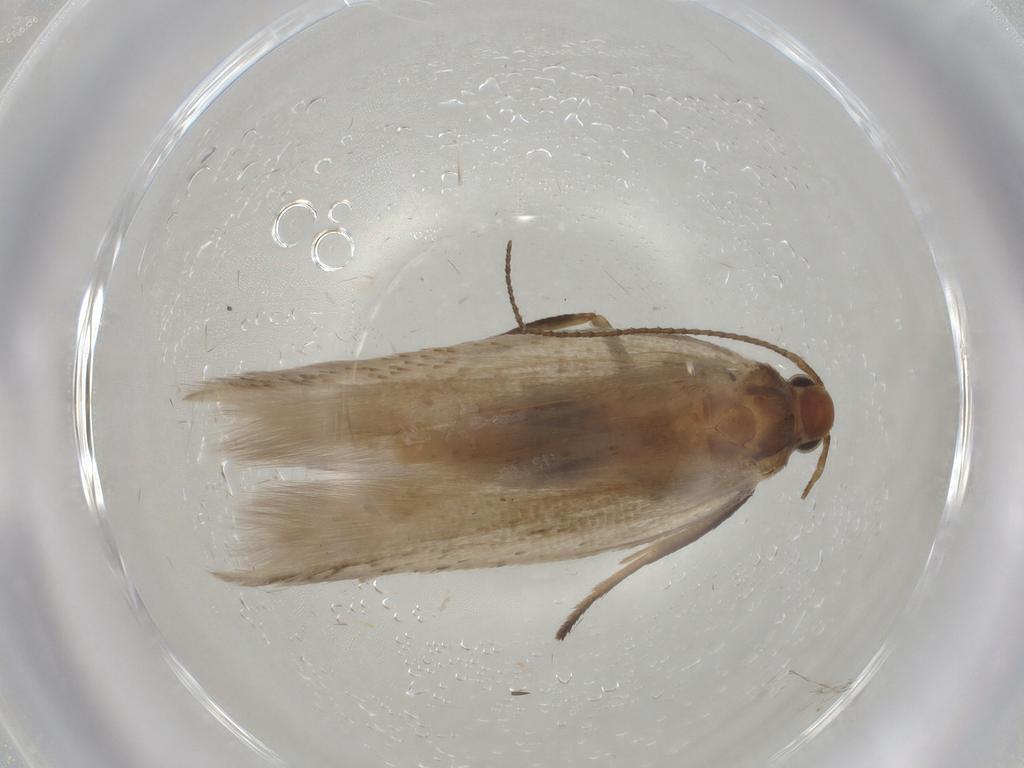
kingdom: Animalia
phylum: Arthropoda
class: Insecta
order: Lepidoptera
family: Gelechiidae
